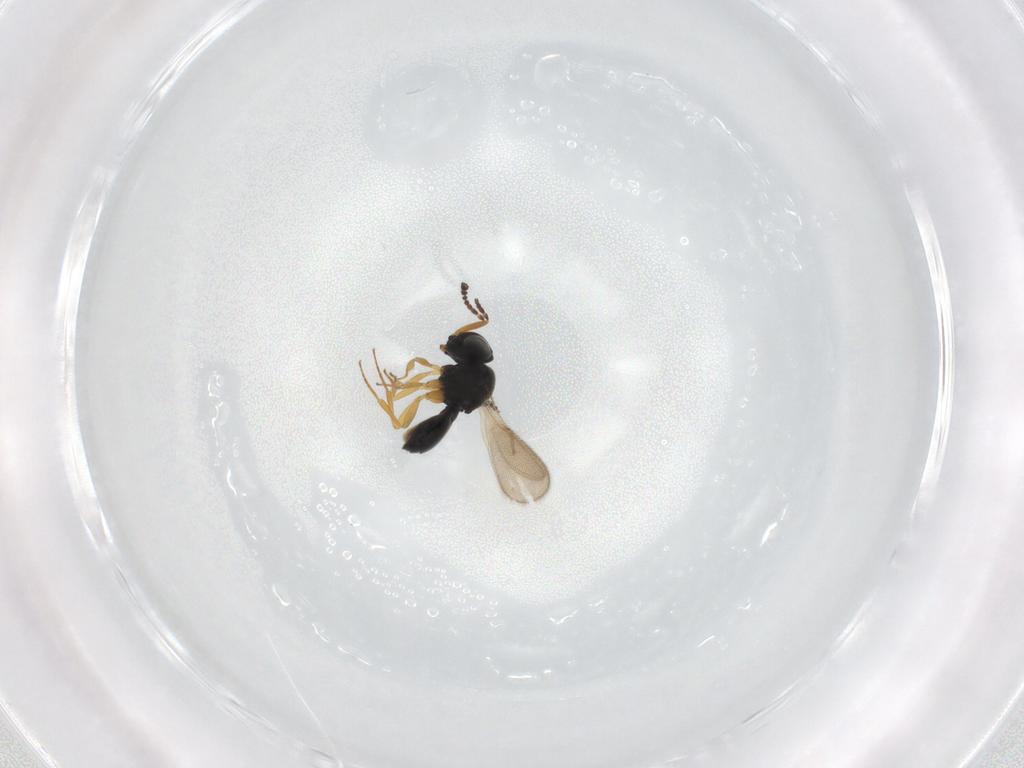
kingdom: Animalia
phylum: Arthropoda
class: Insecta
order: Hymenoptera
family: Scelionidae
